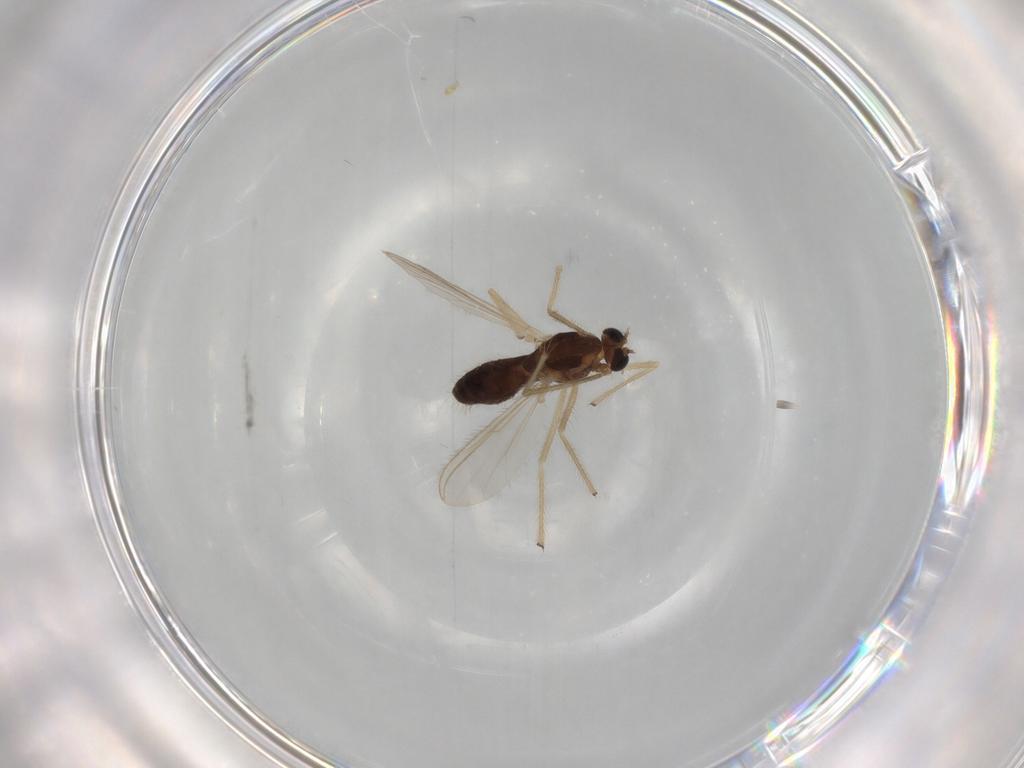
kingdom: Animalia
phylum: Arthropoda
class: Insecta
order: Diptera
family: Chironomidae
